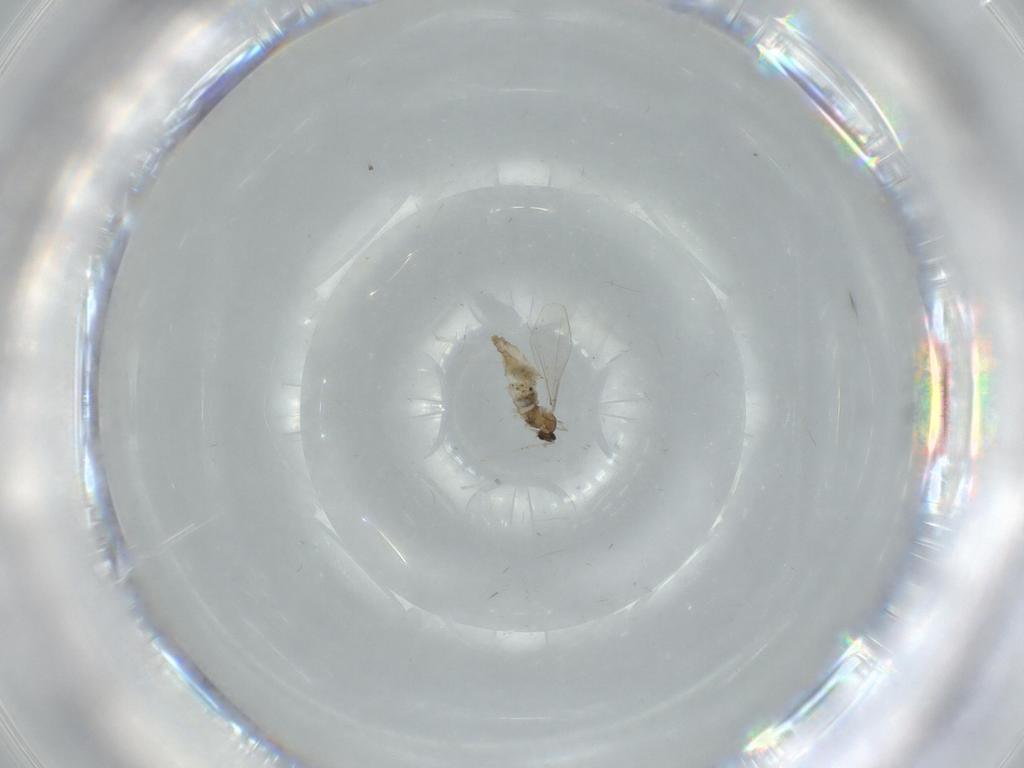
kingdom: Animalia
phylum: Arthropoda
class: Insecta
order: Diptera
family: Cecidomyiidae
